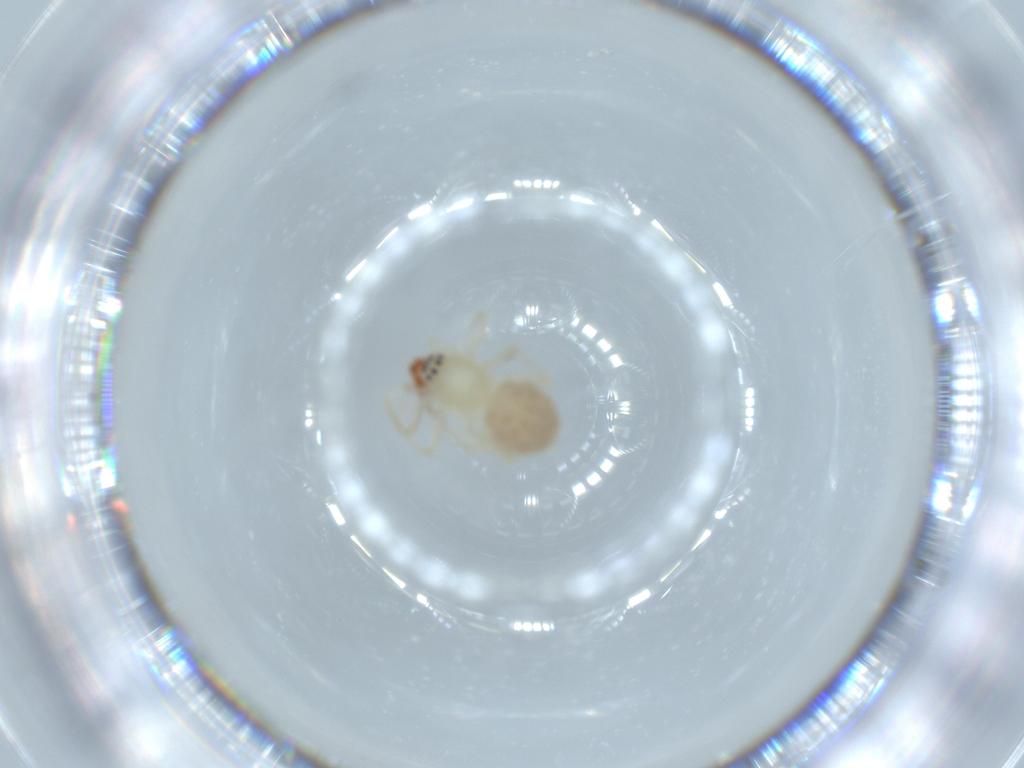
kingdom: Animalia
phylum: Arthropoda
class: Arachnida
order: Araneae
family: Anyphaenidae
